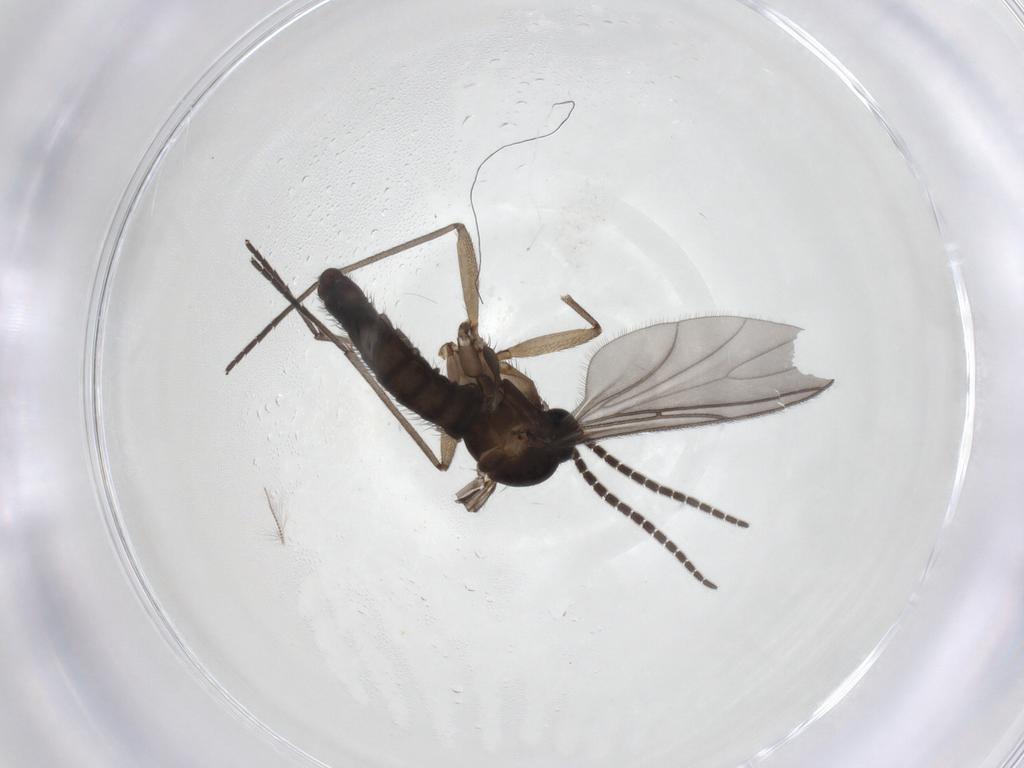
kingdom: Animalia
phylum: Arthropoda
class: Insecta
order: Diptera
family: Sciaridae
